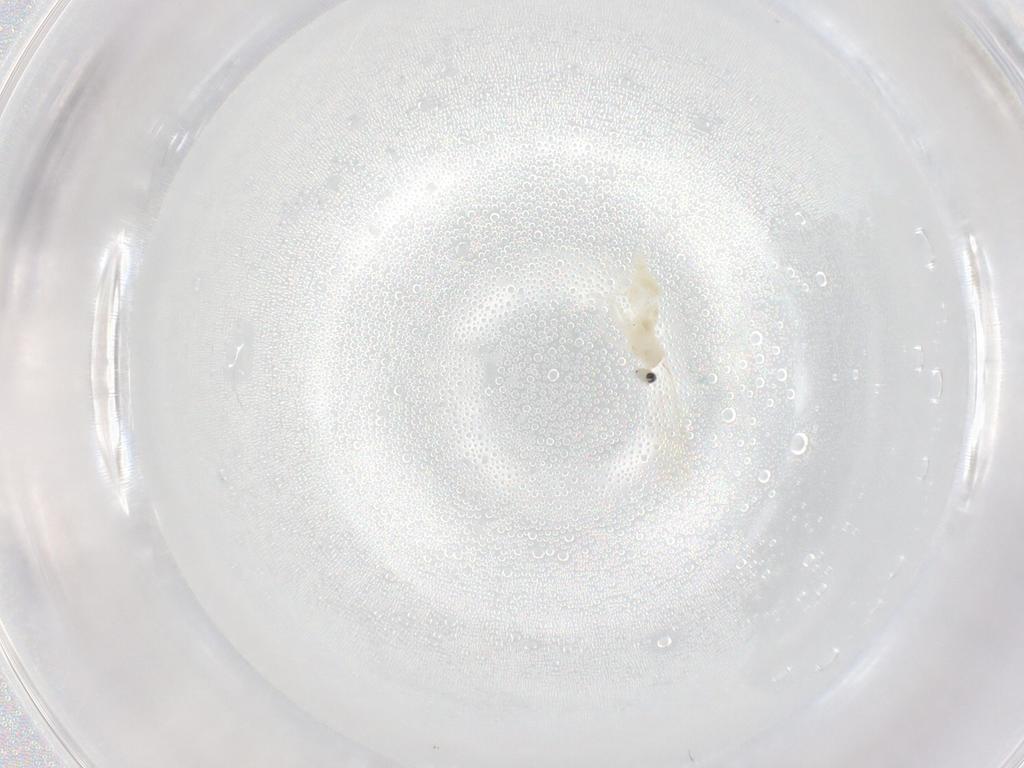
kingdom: Animalia
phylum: Arthropoda
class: Insecta
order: Diptera
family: Cecidomyiidae
